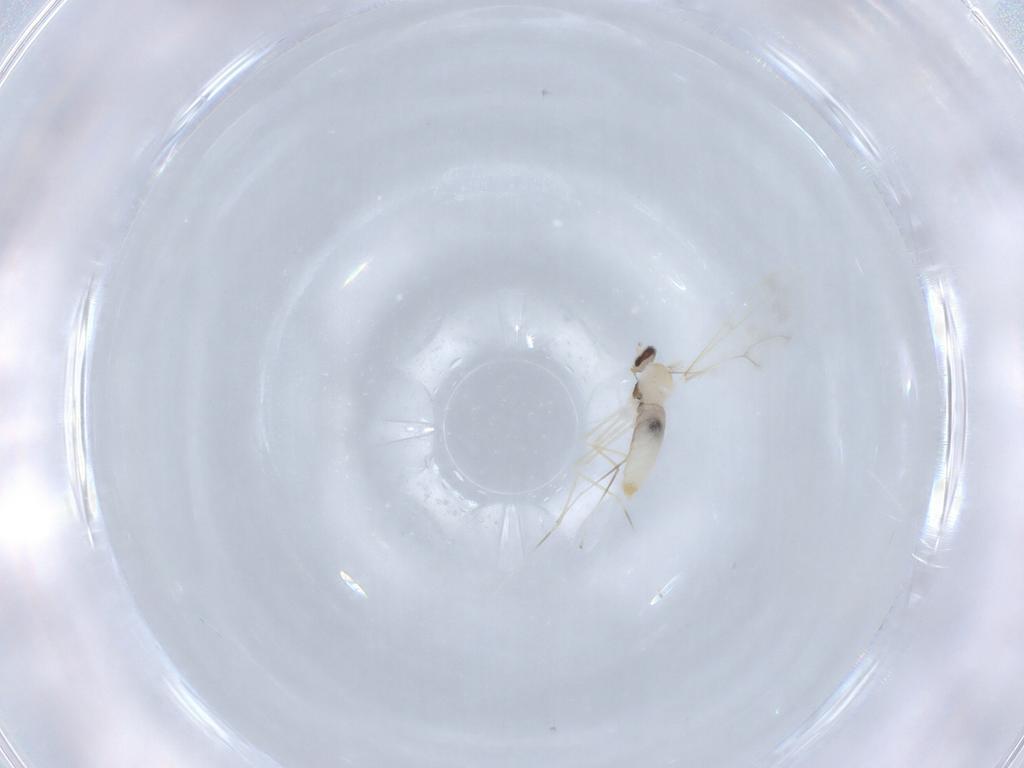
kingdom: Animalia
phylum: Arthropoda
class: Insecta
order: Diptera
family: Cecidomyiidae
